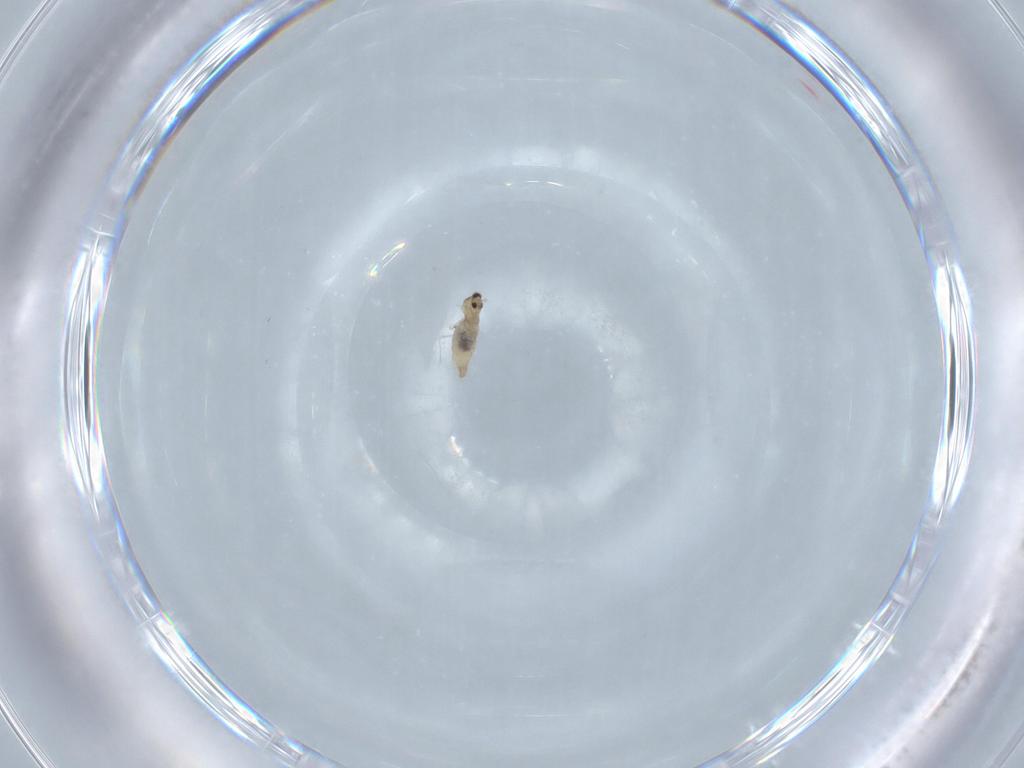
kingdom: Animalia
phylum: Arthropoda
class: Insecta
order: Diptera
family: Cecidomyiidae
